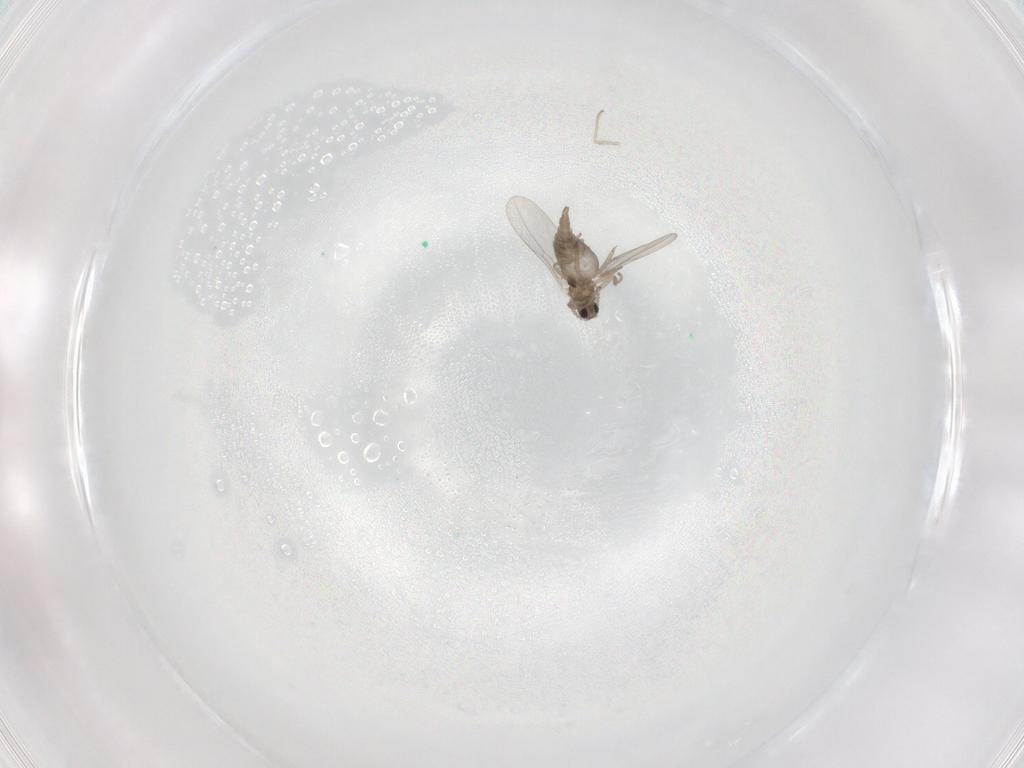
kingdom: Animalia
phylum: Arthropoda
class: Insecta
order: Diptera
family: Cecidomyiidae
